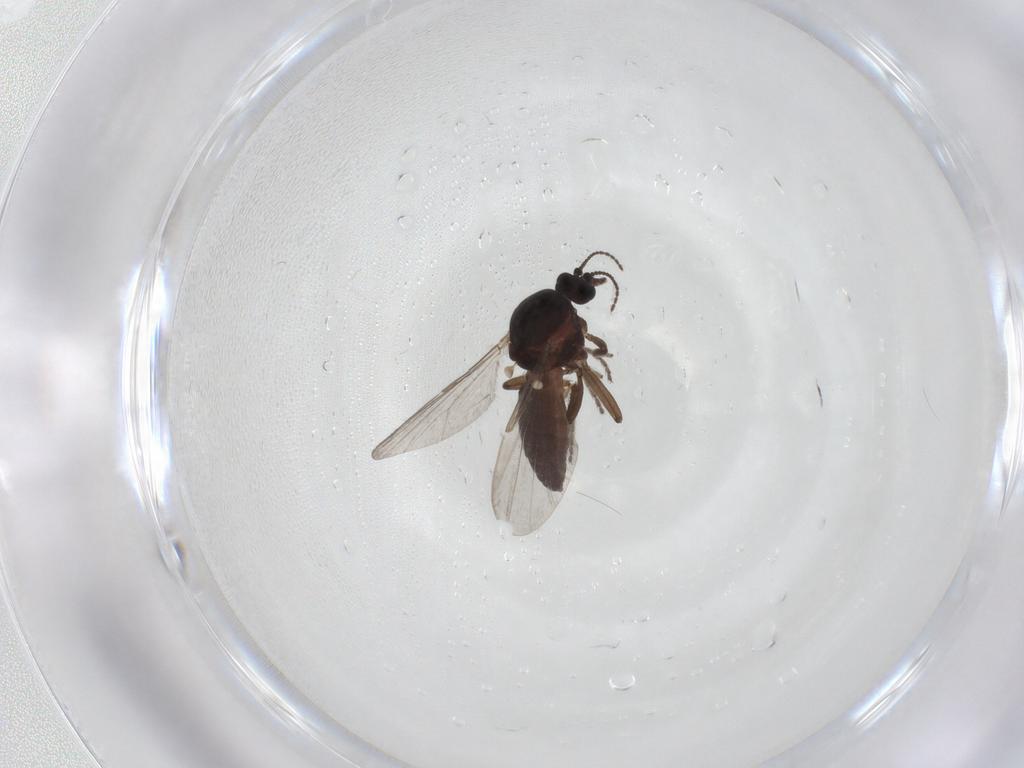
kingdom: Animalia
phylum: Arthropoda
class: Insecta
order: Diptera
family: Ceratopogonidae
